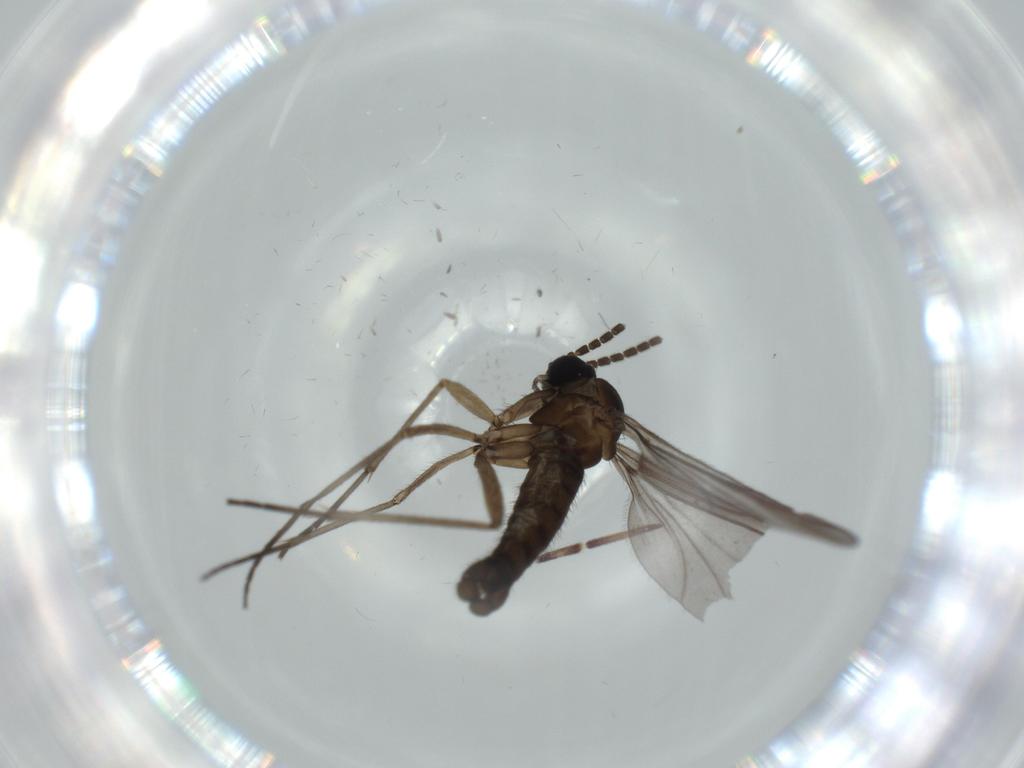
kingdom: Animalia
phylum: Arthropoda
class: Insecta
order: Diptera
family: Sciaridae
